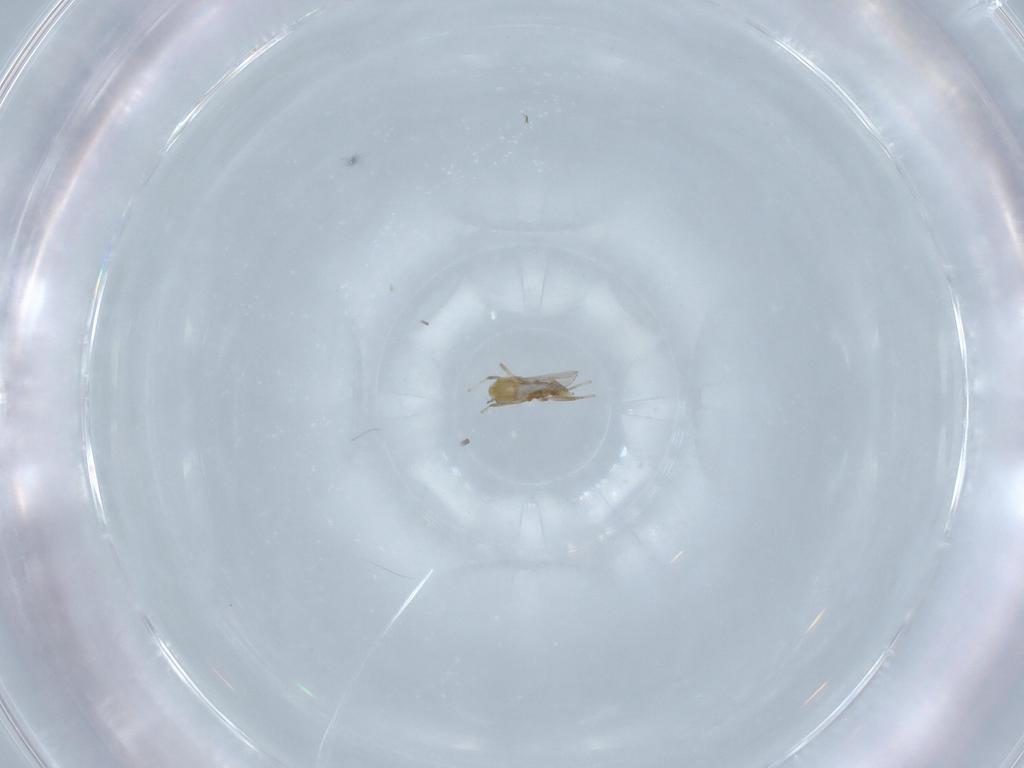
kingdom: Animalia
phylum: Arthropoda
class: Insecta
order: Diptera
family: Chironomidae
